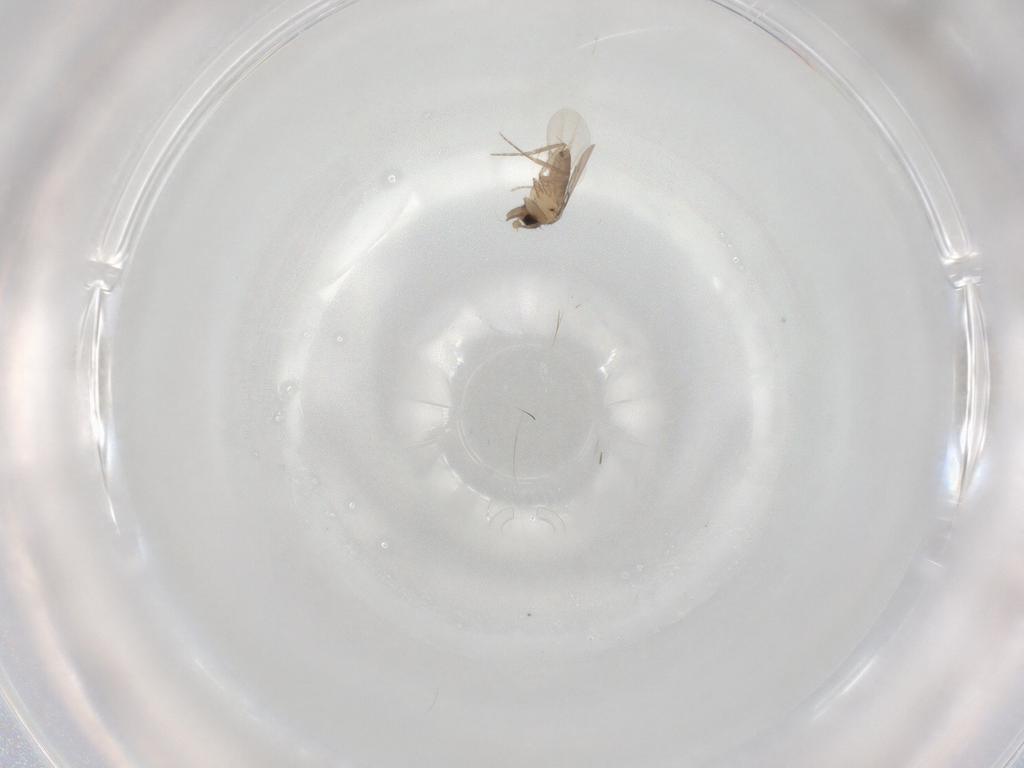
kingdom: Animalia
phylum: Arthropoda
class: Insecta
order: Diptera
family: Phoridae
